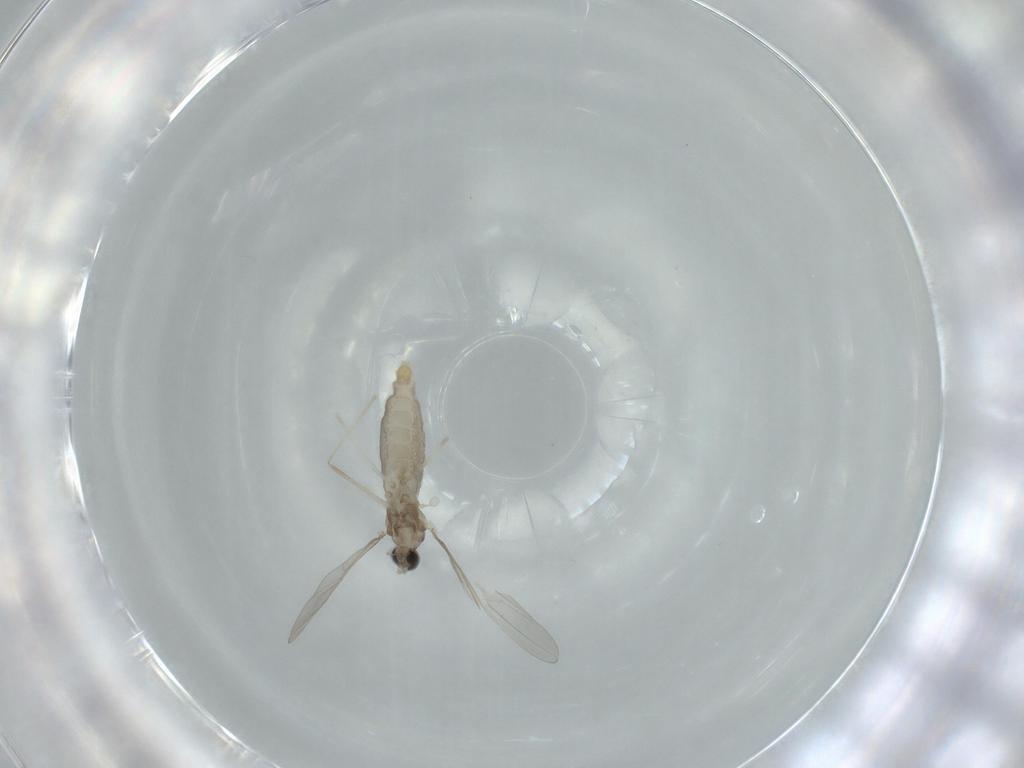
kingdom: Animalia
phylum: Arthropoda
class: Insecta
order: Diptera
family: Cecidomyiidae
